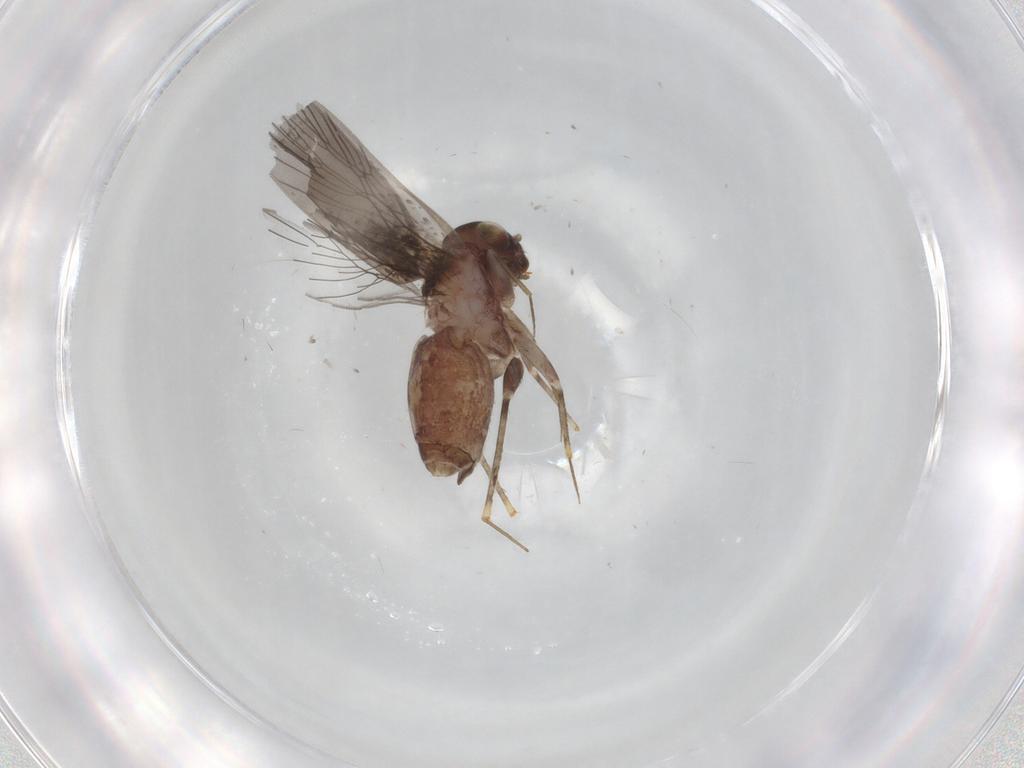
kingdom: Animalia
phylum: Arthropoda
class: Insecta
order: Psocodea
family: Lepidopsocidae
